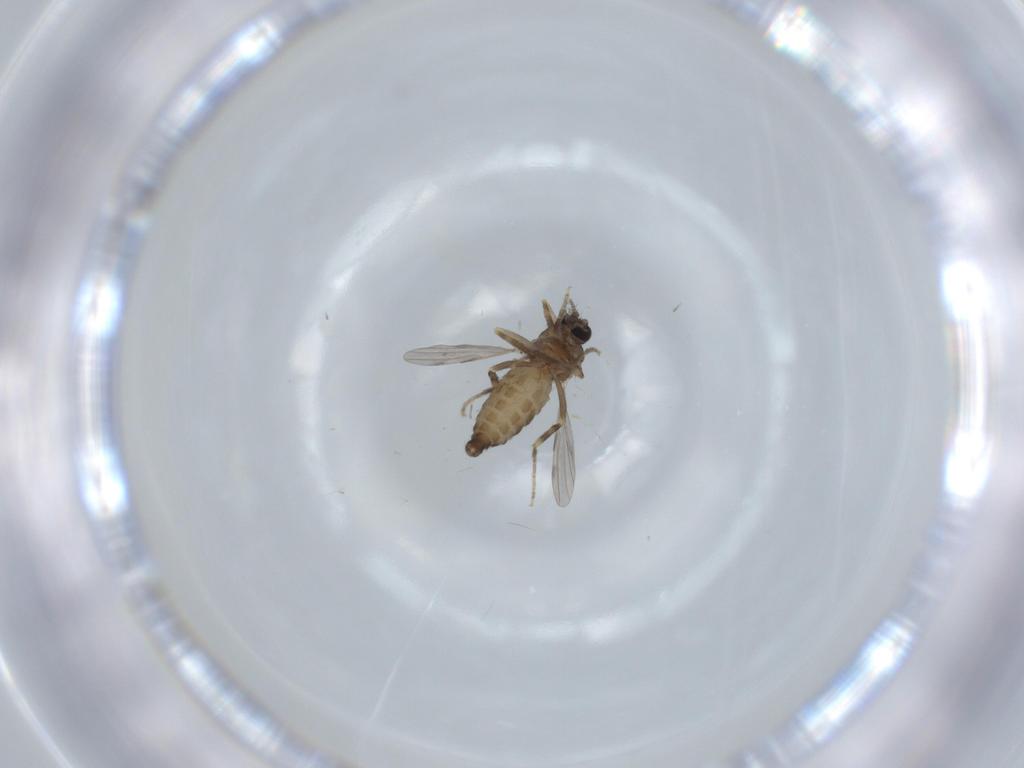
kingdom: Animalia
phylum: Arthropoda
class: Insecta
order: Diptera
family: Ceratopogonidae
